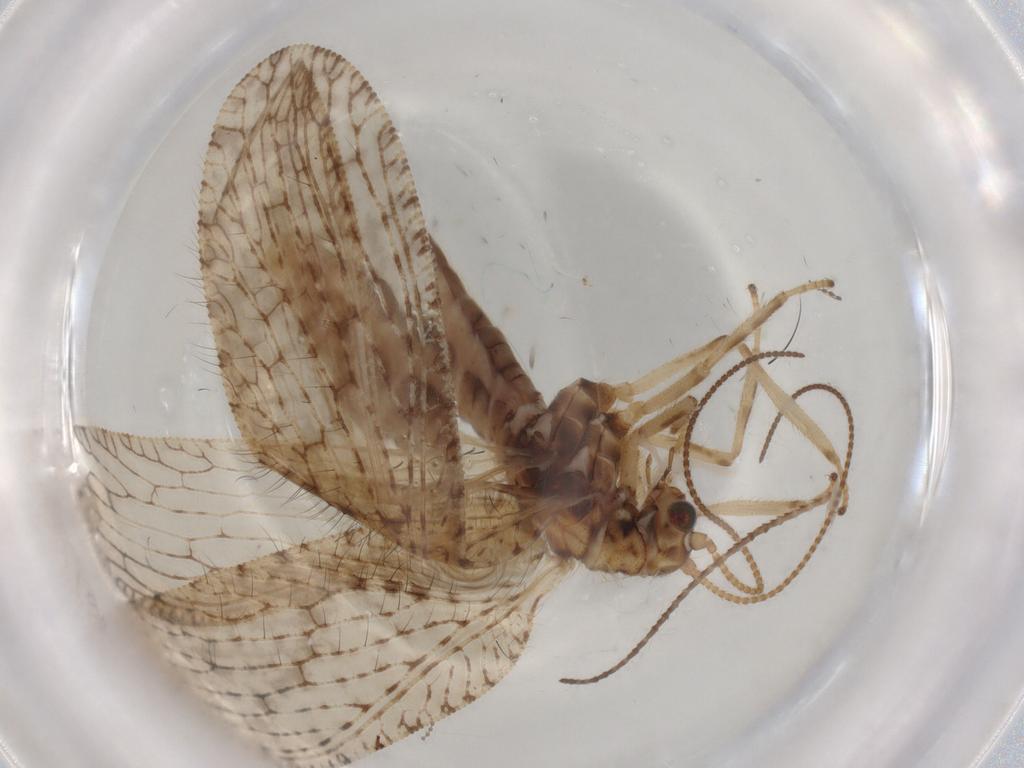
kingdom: Animalia
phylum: Arthropoda
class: Insecta
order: Neuroptera
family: Hemerobiidae
